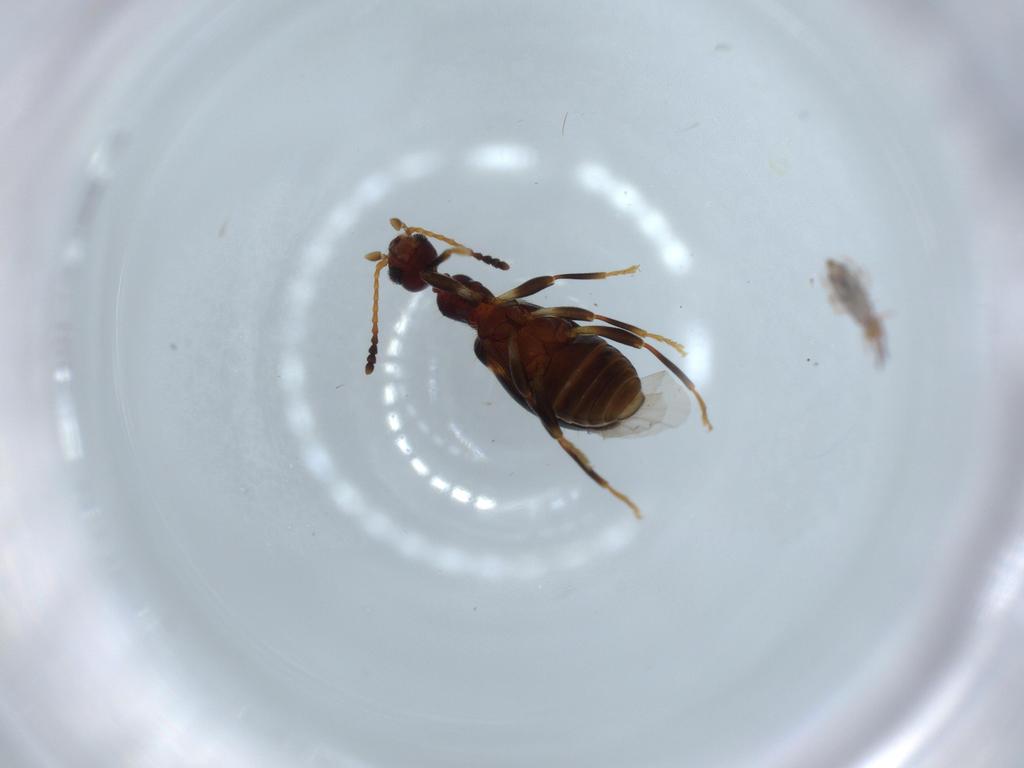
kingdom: Animalia
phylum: Arthropoda
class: Collembola
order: Entomobryomorpha
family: Entomobryidae
